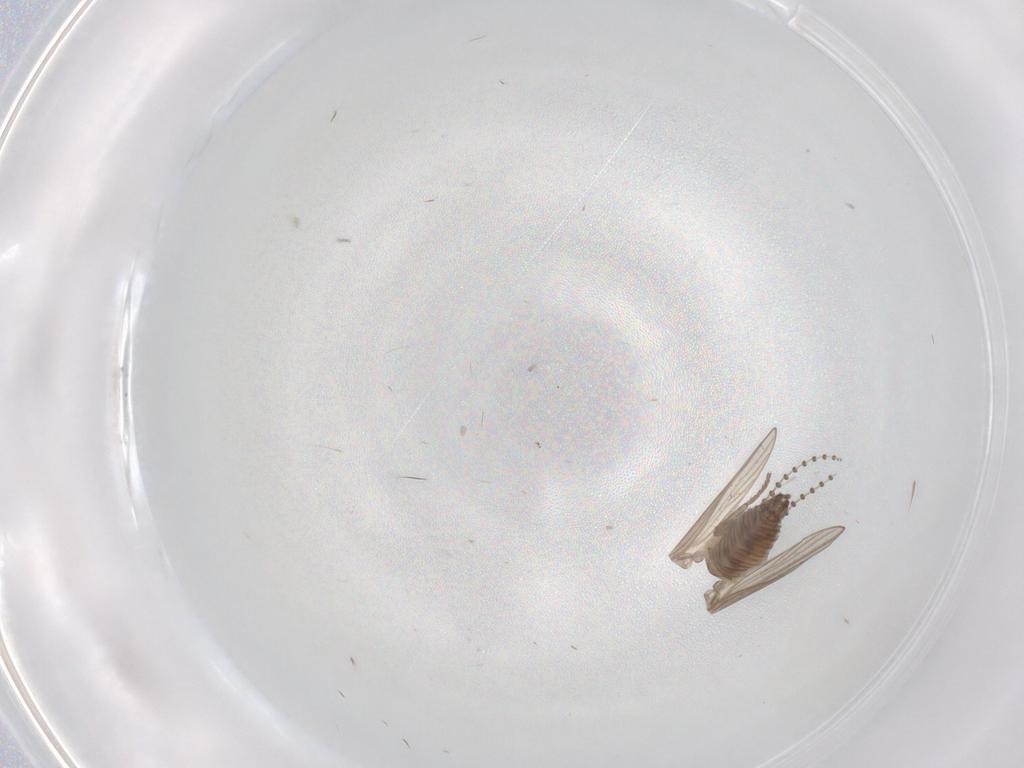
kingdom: Animalia
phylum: Arthropoda
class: Insecta
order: Diptera
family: Psychodidae
